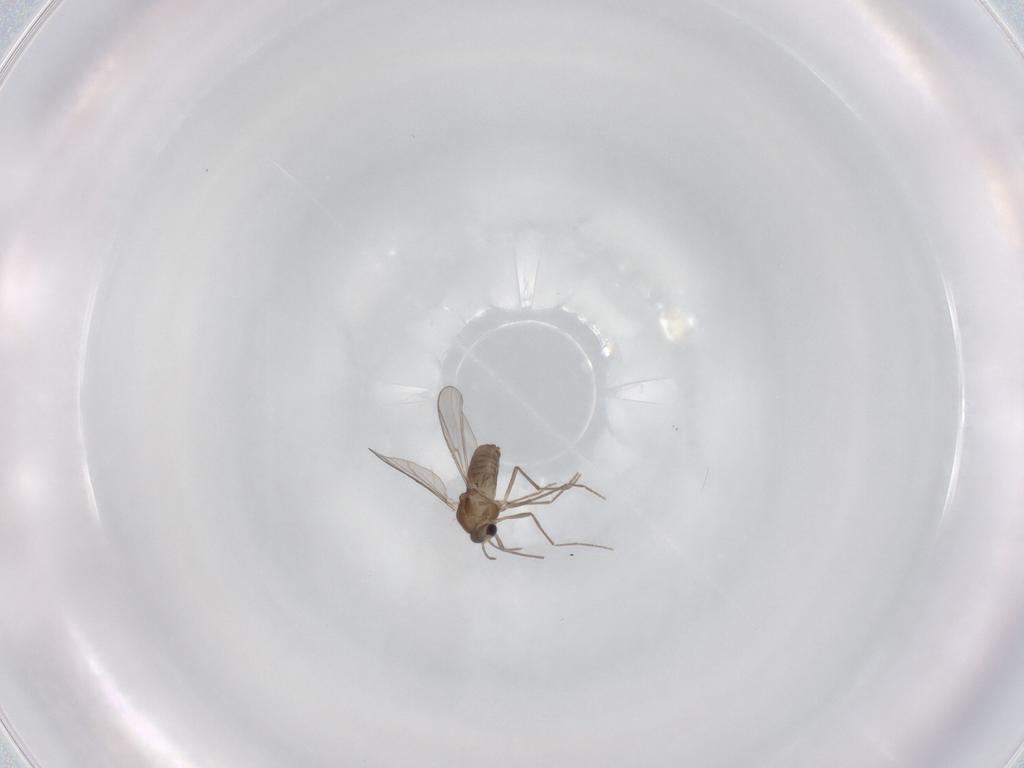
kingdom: Animalia
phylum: Arthropoda
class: Insecta
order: Diptera
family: Chironomidae
